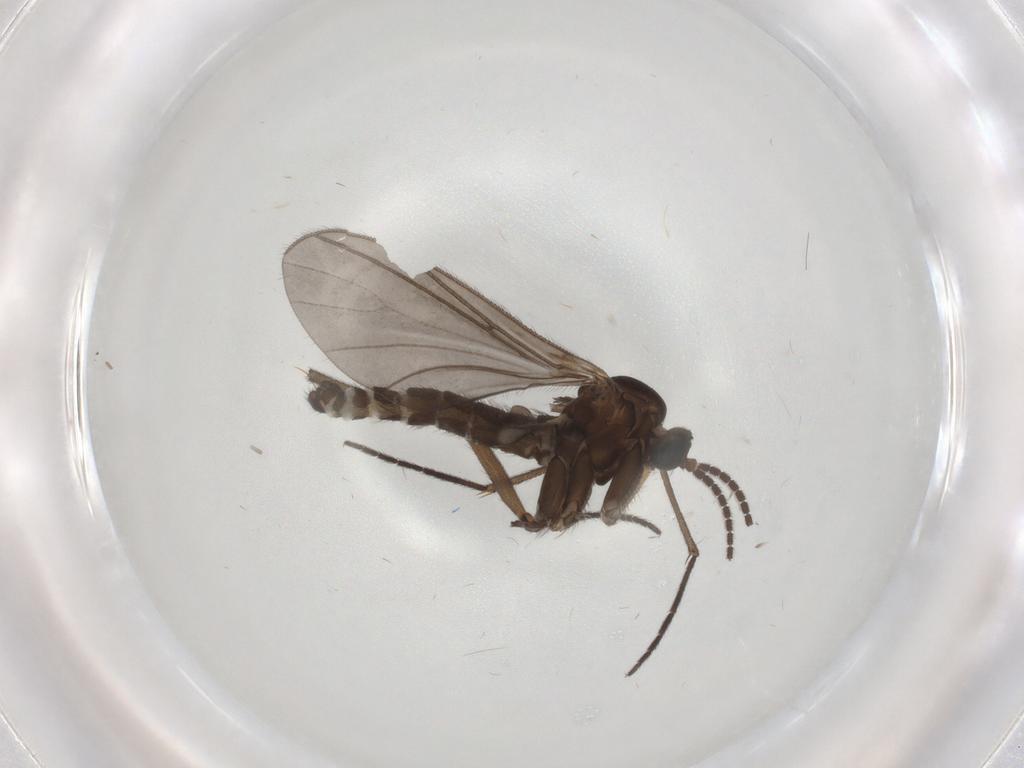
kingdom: Animalia
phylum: Arthropoda
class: Insecta
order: Diptera
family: Sciaridae
